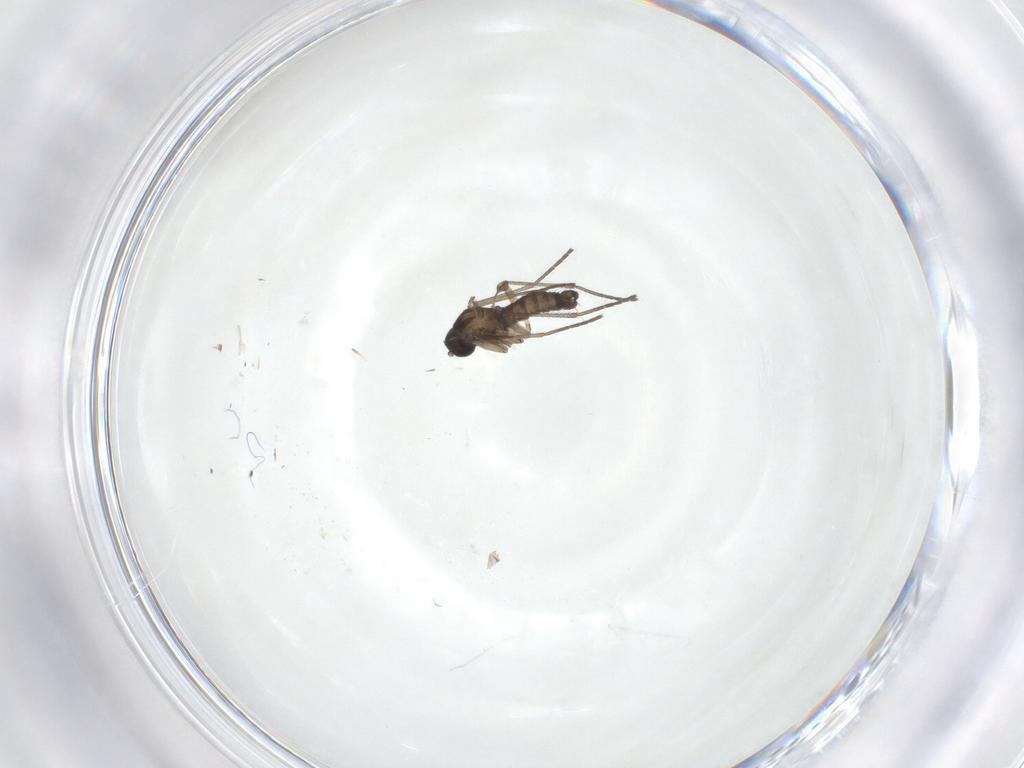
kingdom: Animalia
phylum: Arthropoda
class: Insecta
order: Diptera
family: Cecidomyiidae
